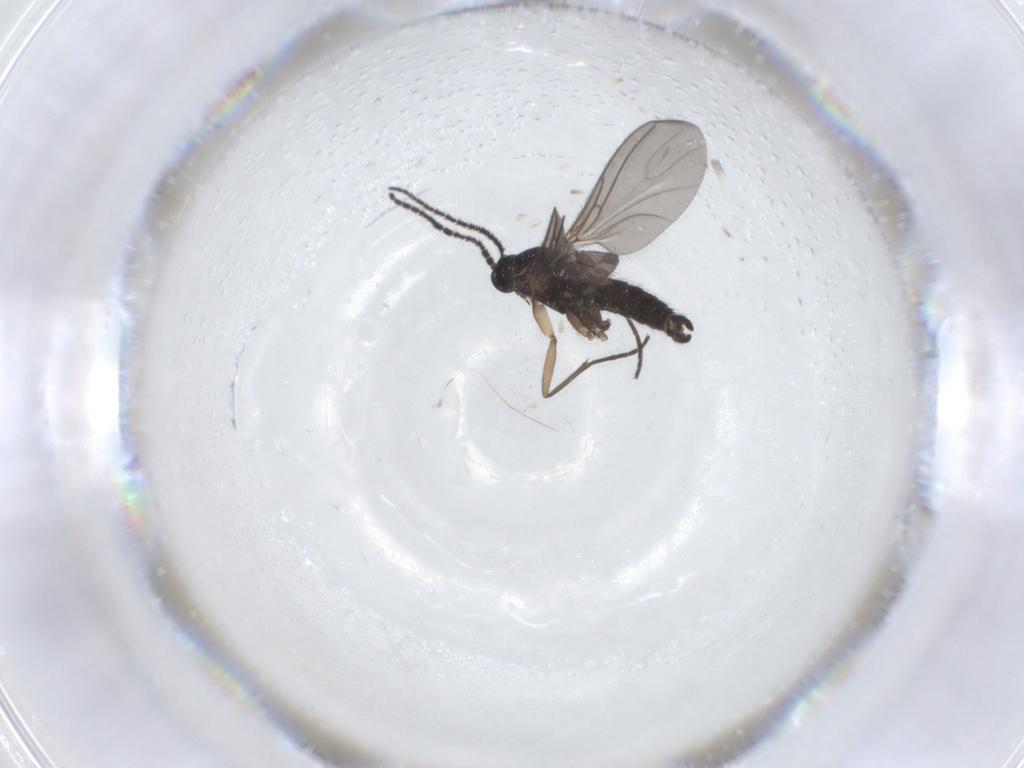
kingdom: Animalia
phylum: Arthropoda
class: Insecta
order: Diptera
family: Sciaridae
